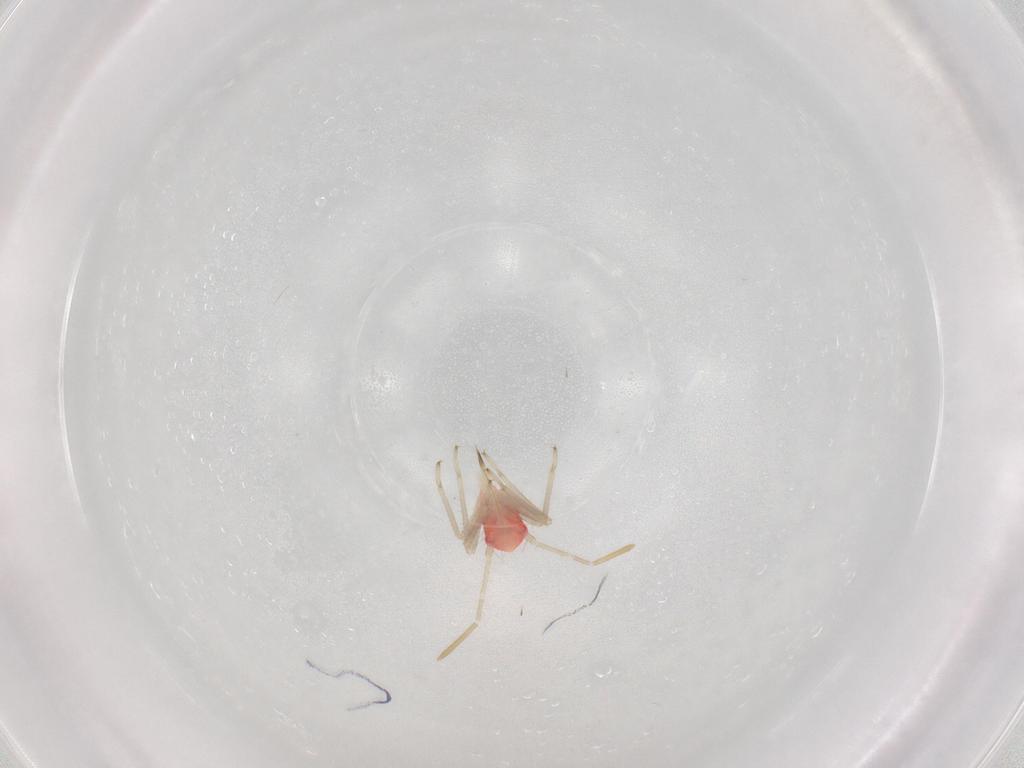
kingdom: Animalia
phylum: Arthropoda
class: Insecta
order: Hemiptera
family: Miridae
